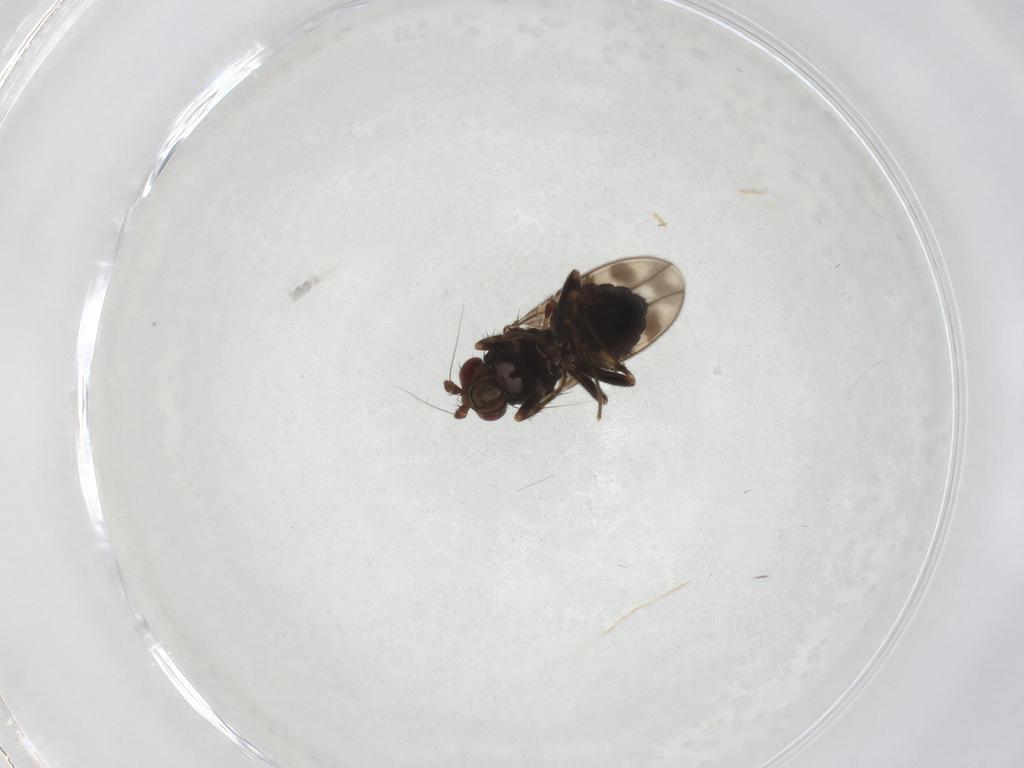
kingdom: Animalia
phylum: Arthropoda
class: Insecta
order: Diptera
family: Sphaeroceridae
